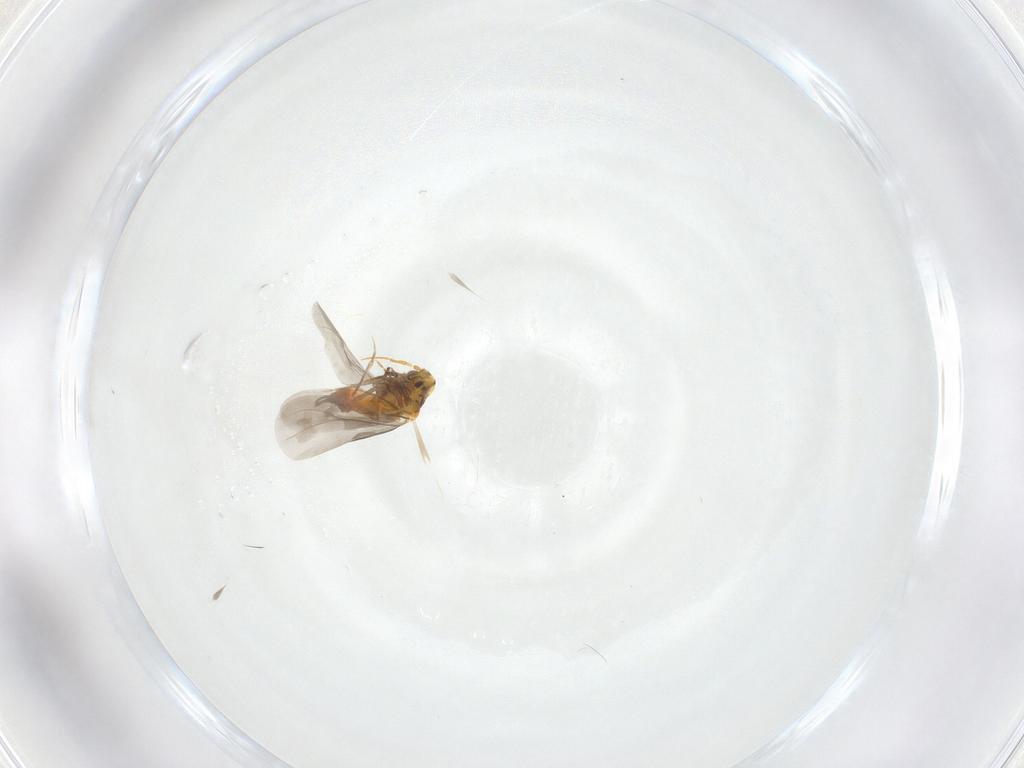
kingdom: Animalia
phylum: Arthropoda
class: Insecta
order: Hemiptera
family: Aleyrodidae
